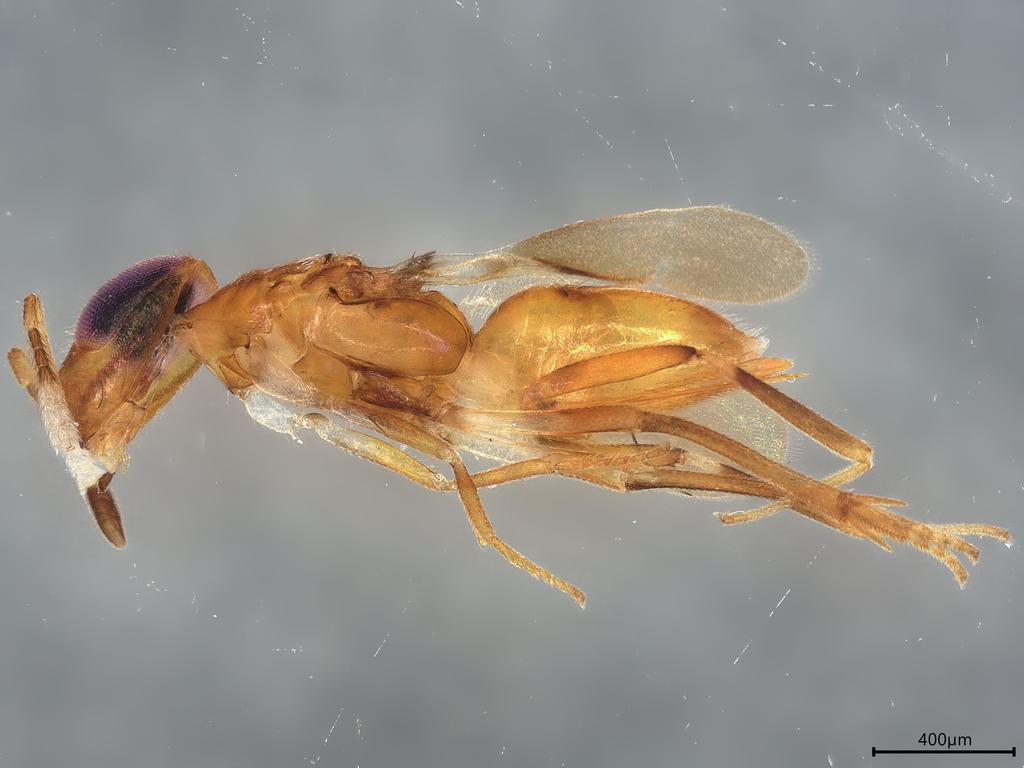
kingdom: Animalia
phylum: Arthropoda
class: Insecta
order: Hymenoptera
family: Encyrtidae
